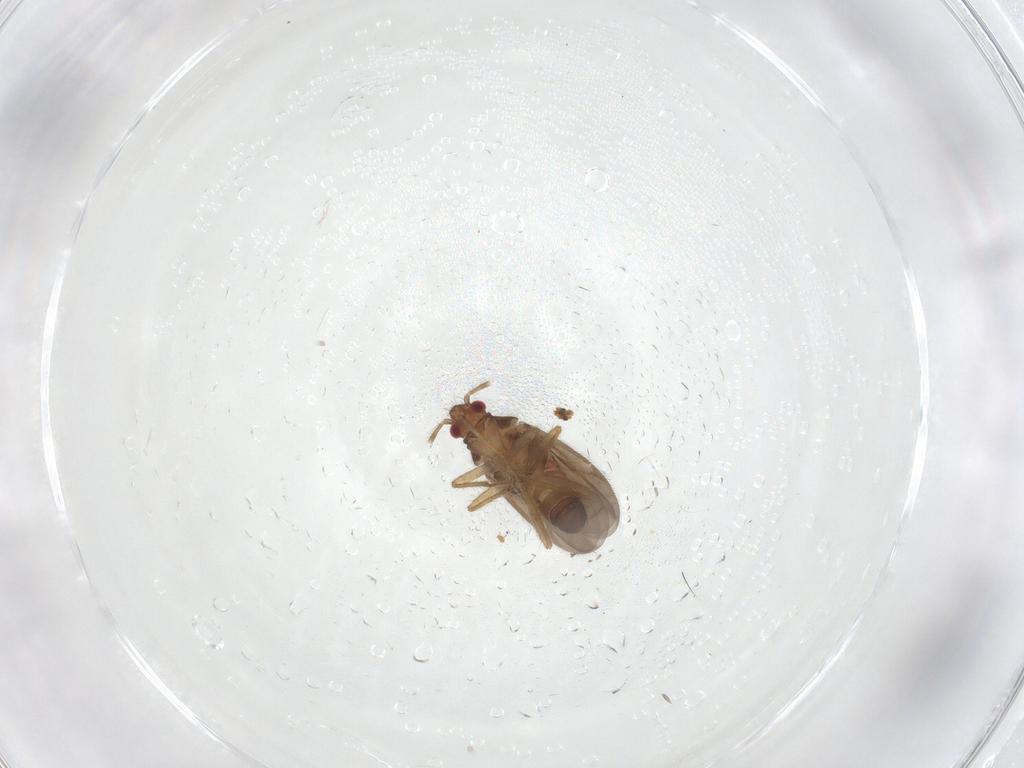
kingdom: Animalia
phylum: Arthropoda
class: Insecta
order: Hemiptera
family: Ceratocombidae
